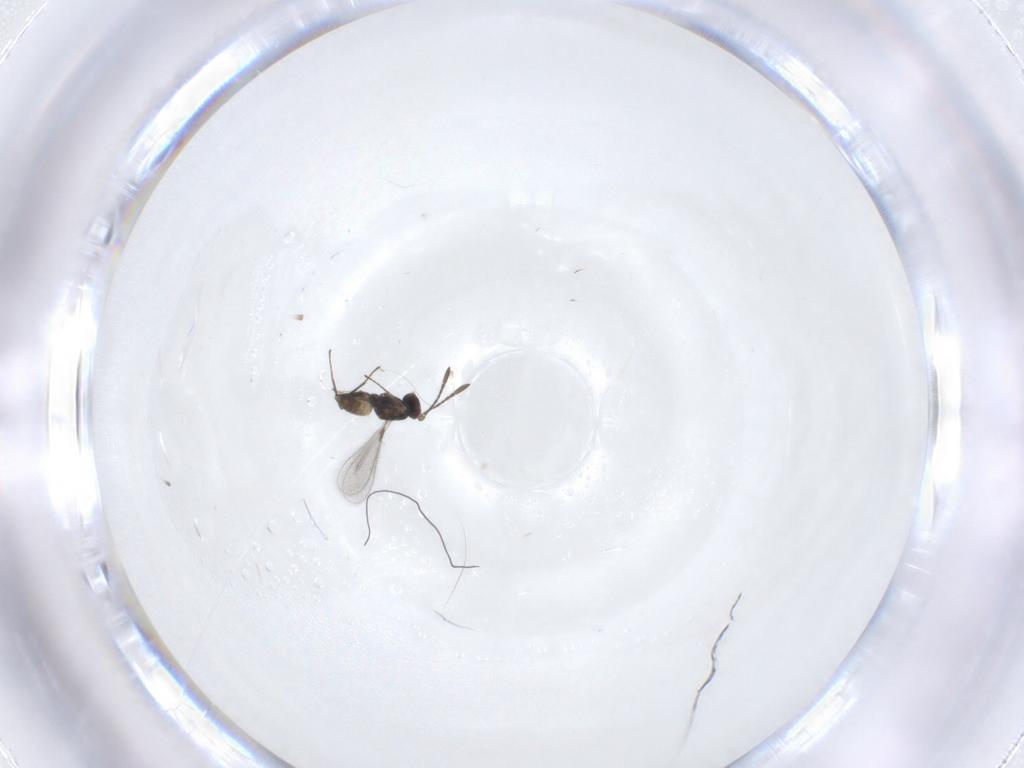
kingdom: Animalia
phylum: Arthropoda
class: Insecta
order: Hymenoptera
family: Mymaridae
